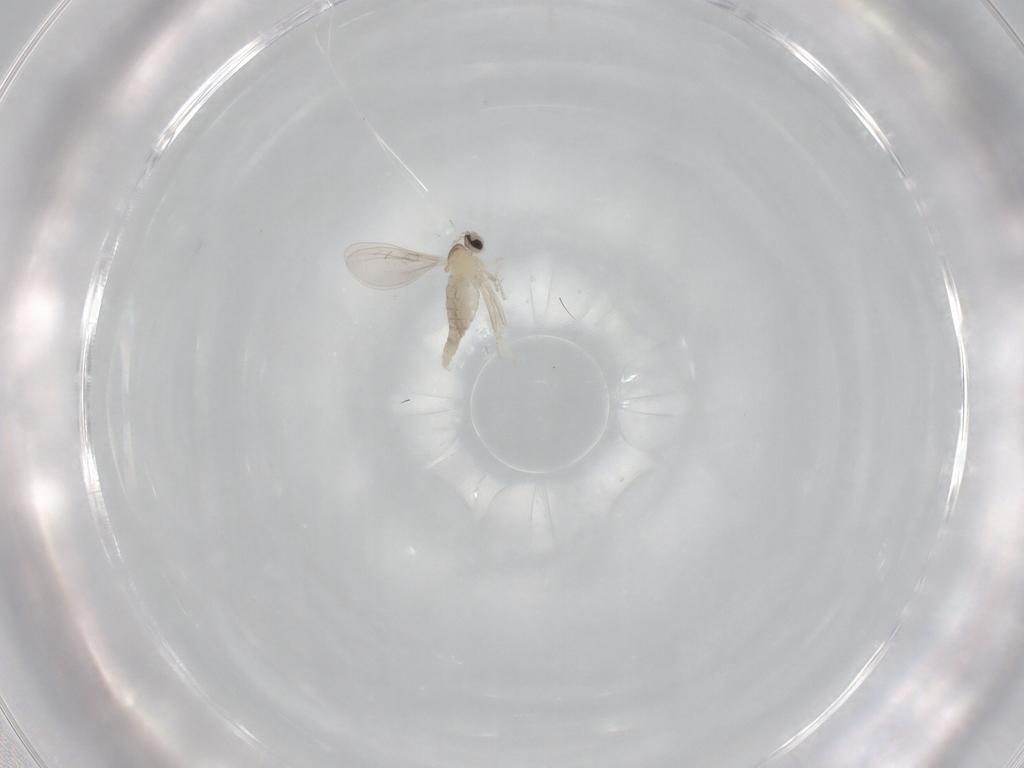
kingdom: Animalia
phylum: Arthropoda
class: Insecta
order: Diptera
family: Cecidomyiidae
